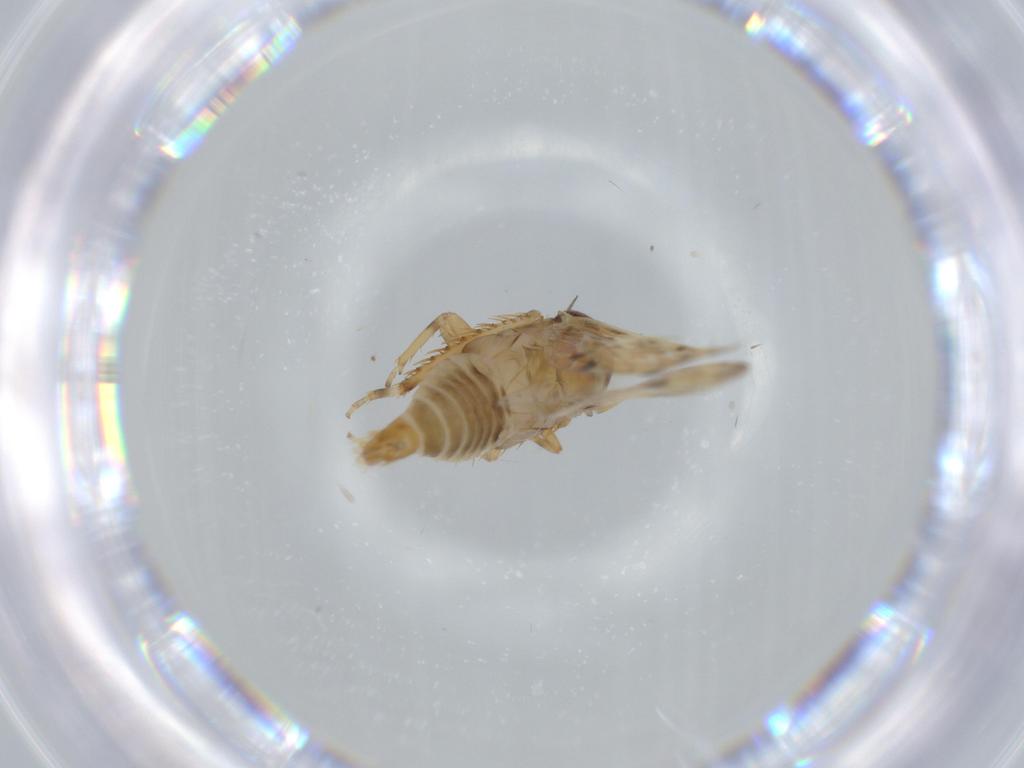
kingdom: Animalia
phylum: Arthropoda
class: Insecta
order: Hemiptera
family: Cicadellidae
